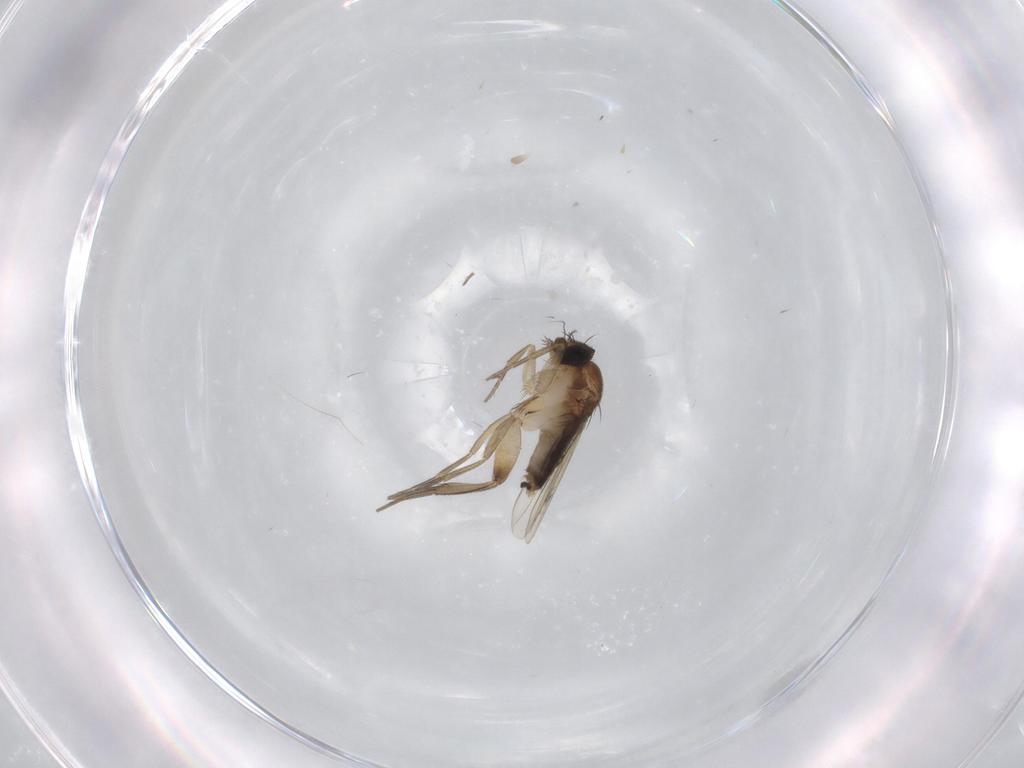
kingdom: Animalia
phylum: Arthropoda
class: Insecta
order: Diptera
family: Phoridae
